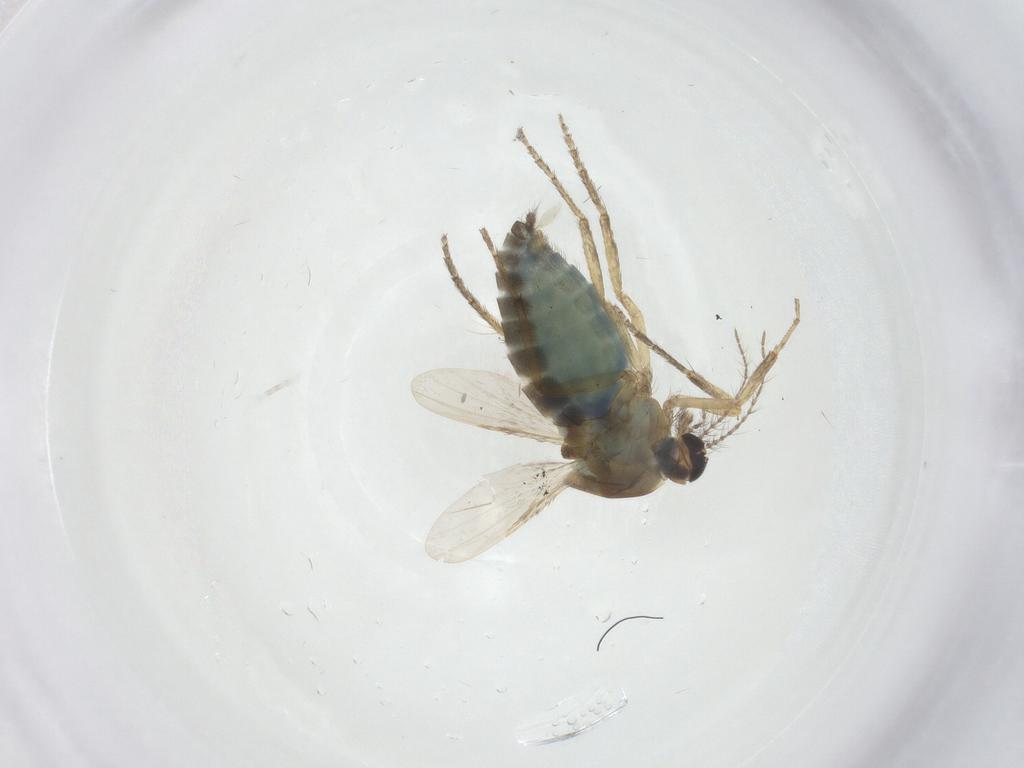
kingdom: Animalia
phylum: Arthropoda
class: Insecta
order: Diptera
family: Ceratopogonidae
